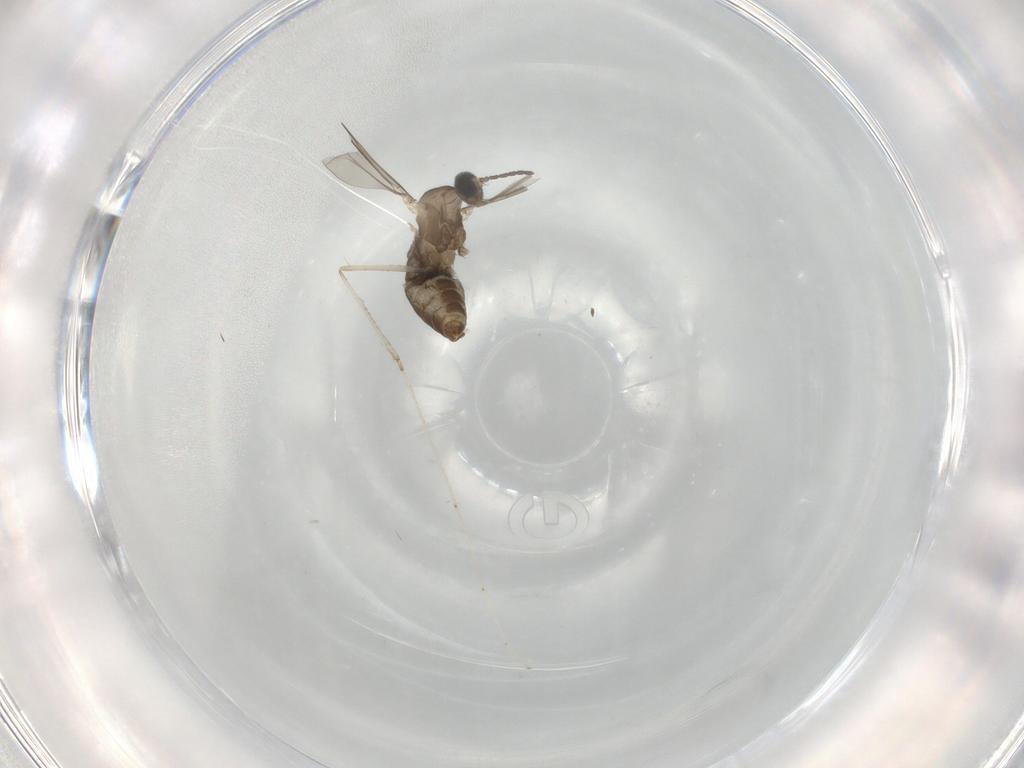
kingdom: Animalia
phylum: Arthropoda
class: Insecta
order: Diptera
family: Cecidomyiidae
